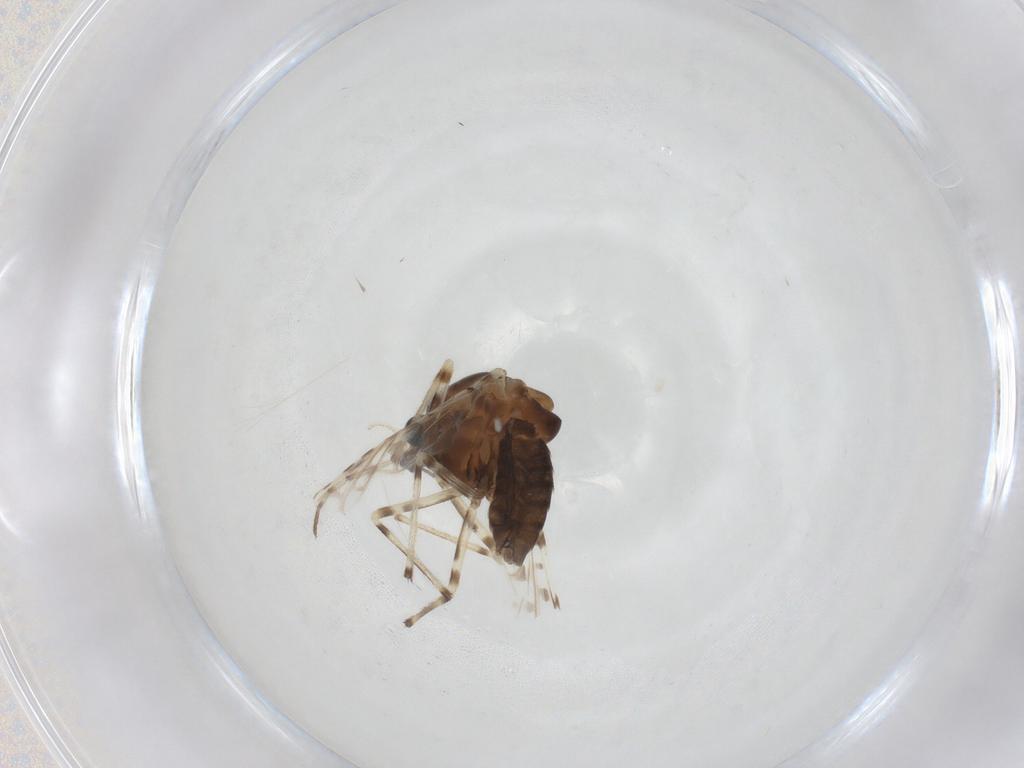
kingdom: Animalia
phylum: Arthropoda
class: Insecta
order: Diptera
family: Chironomidae
